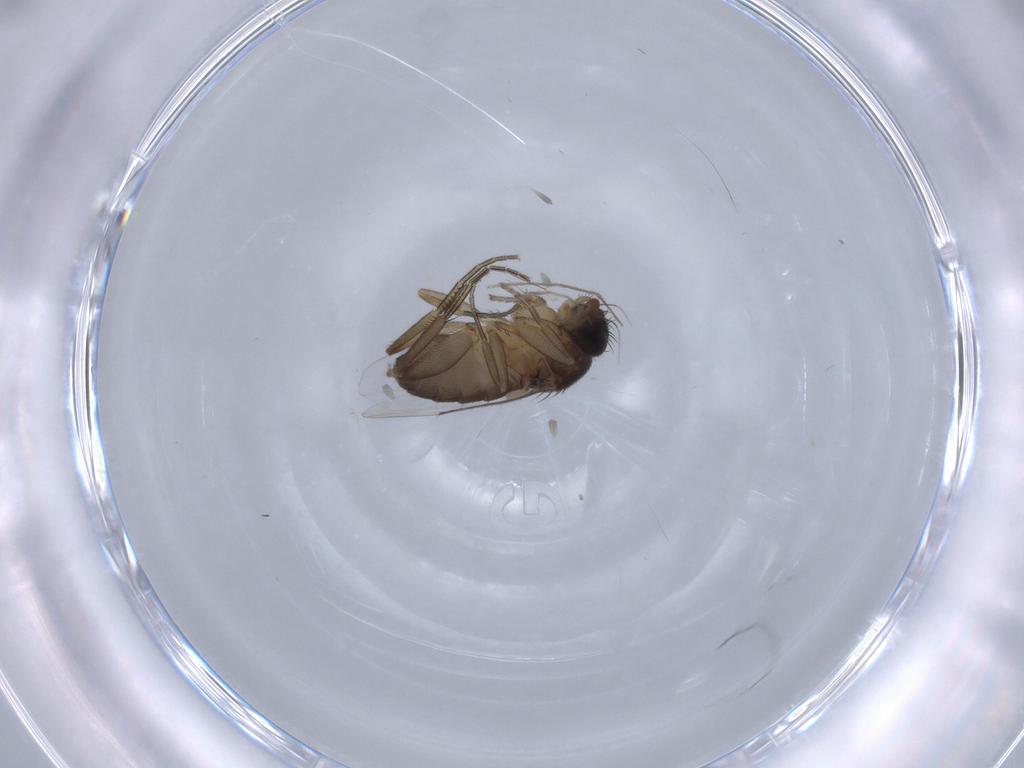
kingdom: Animalia
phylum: Arthropoda
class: Insecta
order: Diptera
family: Phoridae
